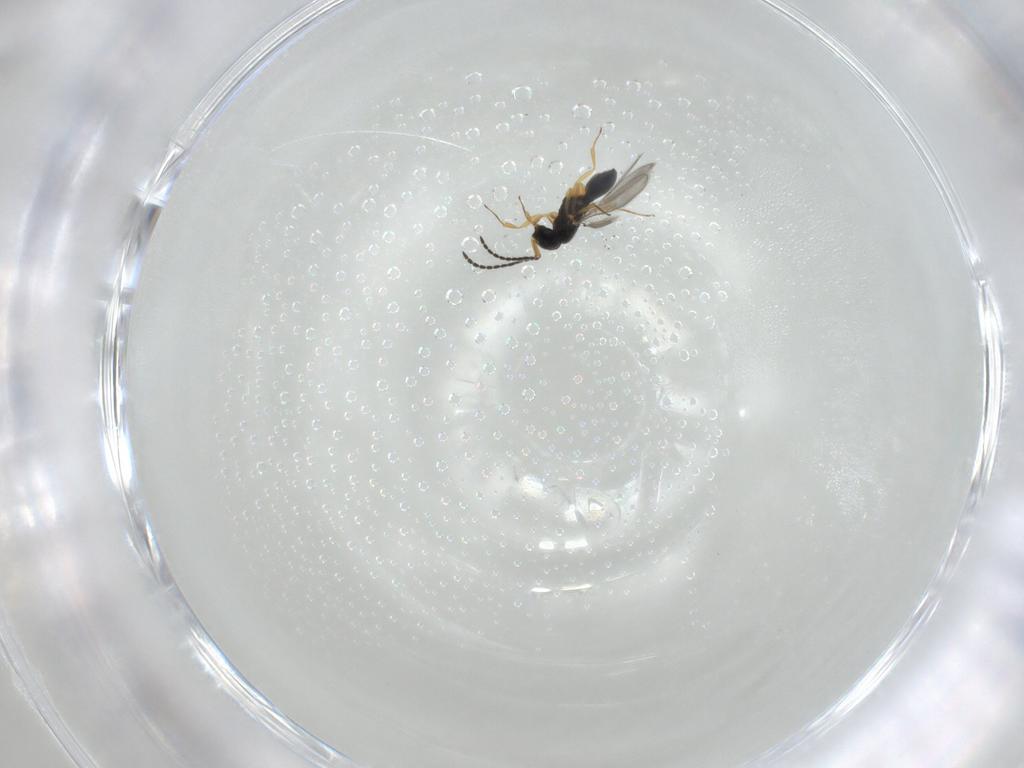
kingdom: Animalia
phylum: Arthropoda
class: Insecta
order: Hymenoptera
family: Scelionidae
